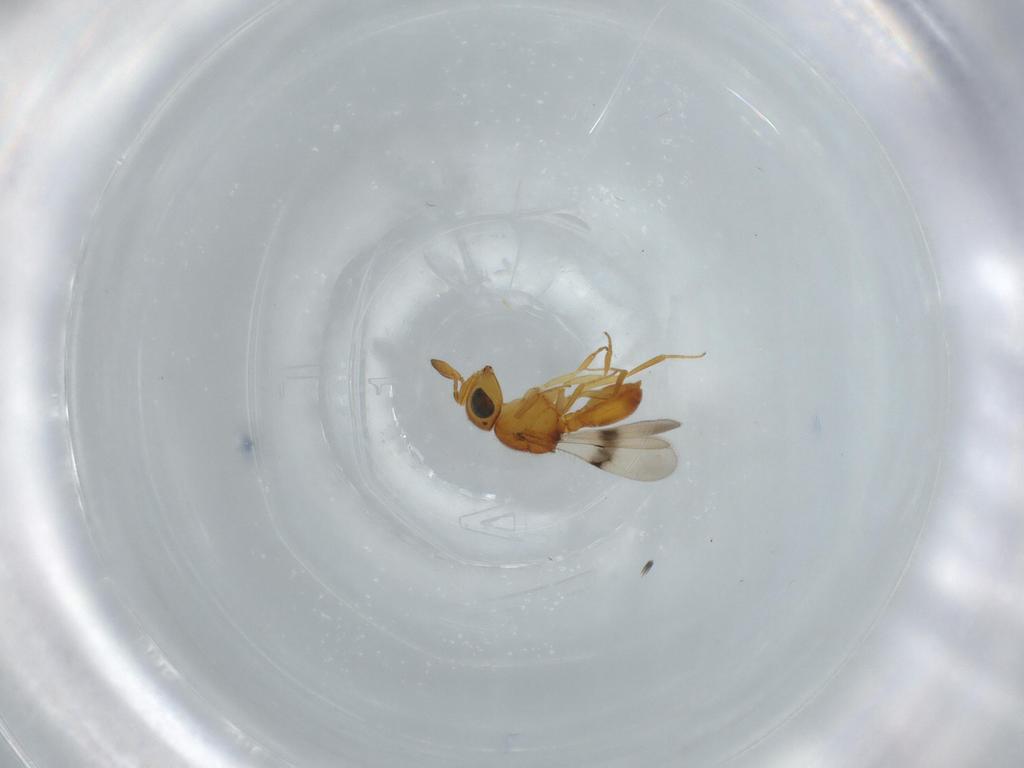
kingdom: Animalia
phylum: Arthropoda
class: Insecta
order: Hymenoptera
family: Scelionidae
